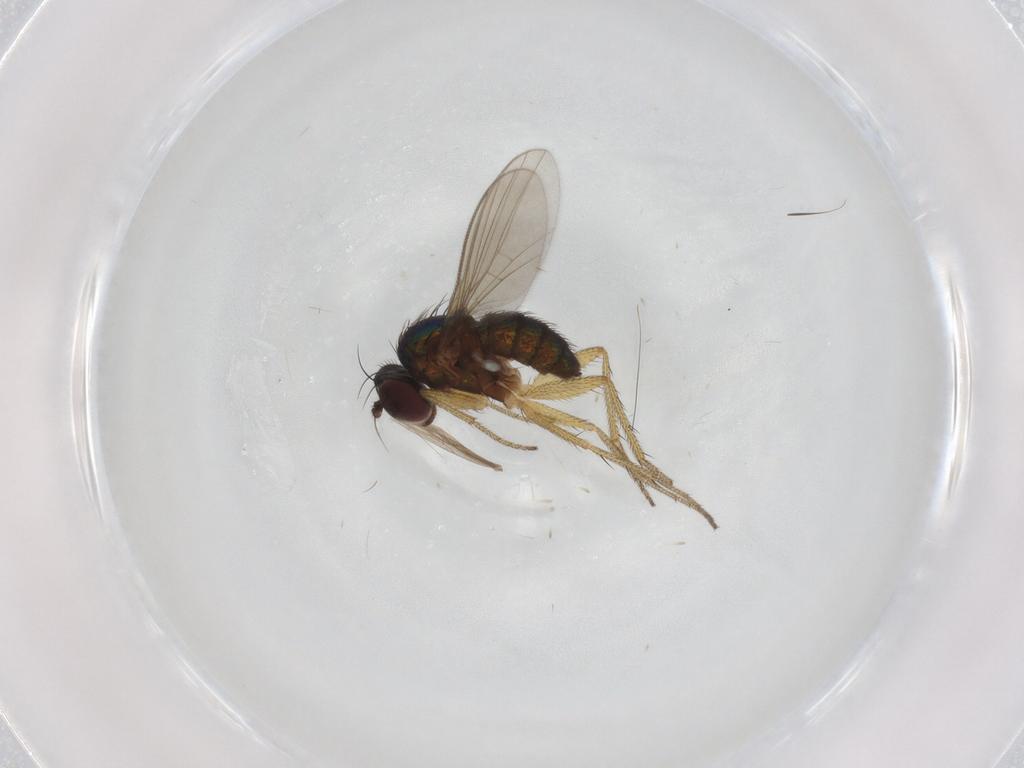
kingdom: Animalia
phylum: Arthropoda
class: Insecta
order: Diptera
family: Dolichopodidae
